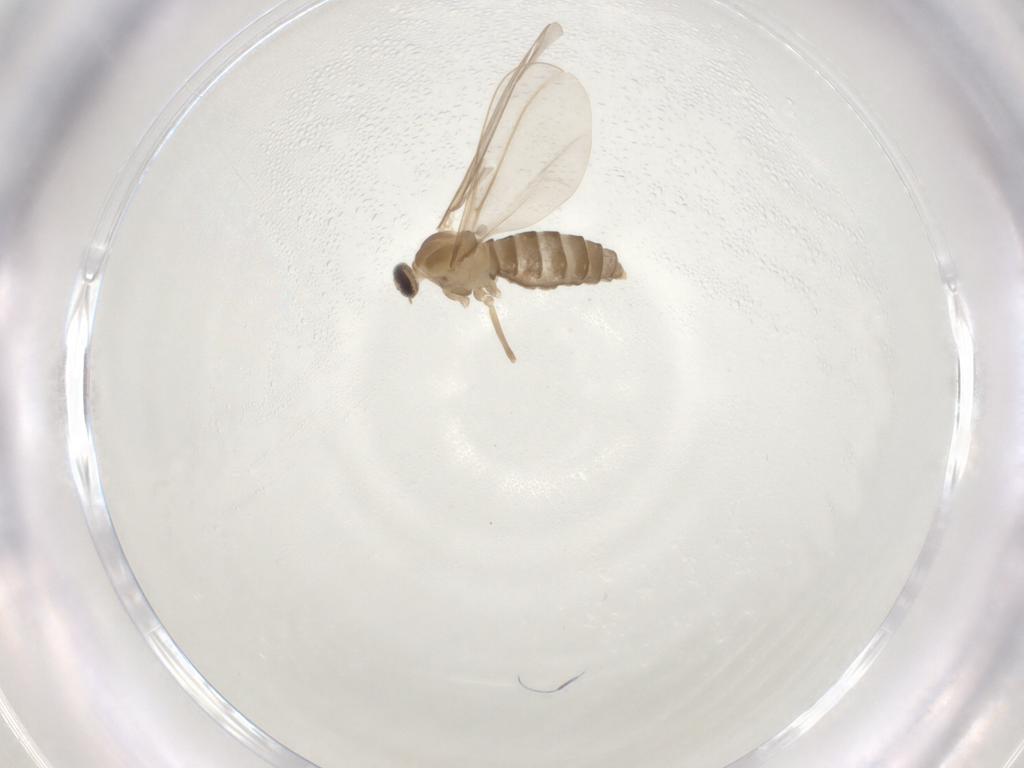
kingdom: Animalia
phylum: Arthropoda
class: Insecta
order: Diptera
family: Cecidomyiidae
